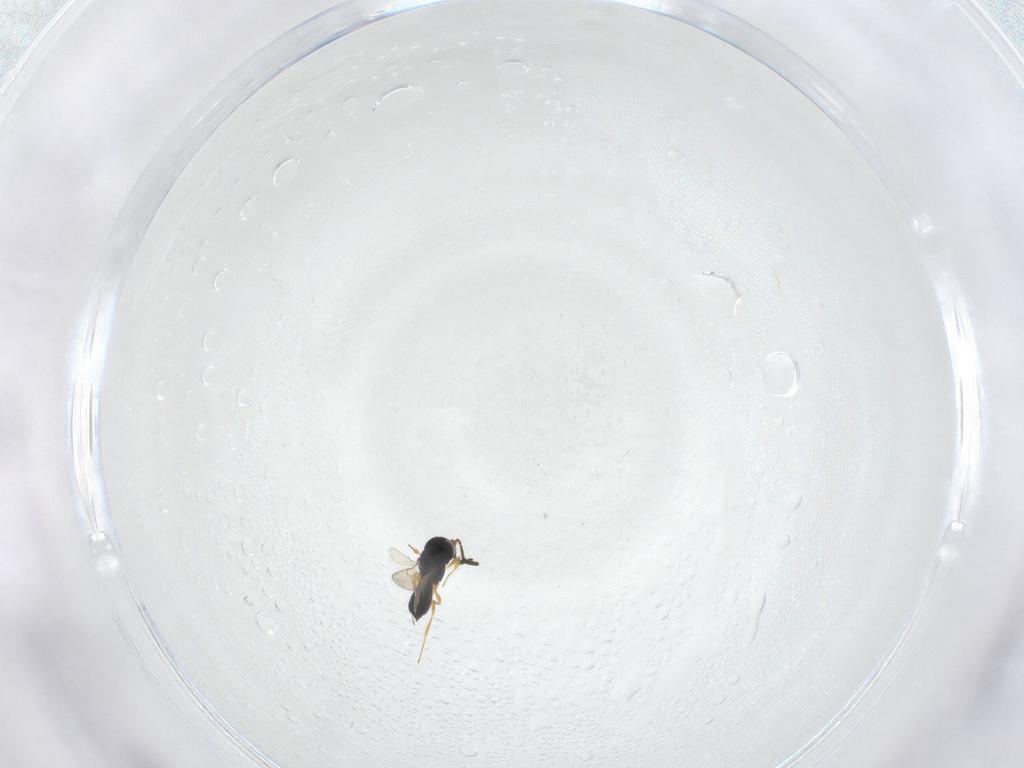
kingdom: Animalia
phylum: Arthropoda
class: Insecta
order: Hymenoptera
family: Scelionidae
